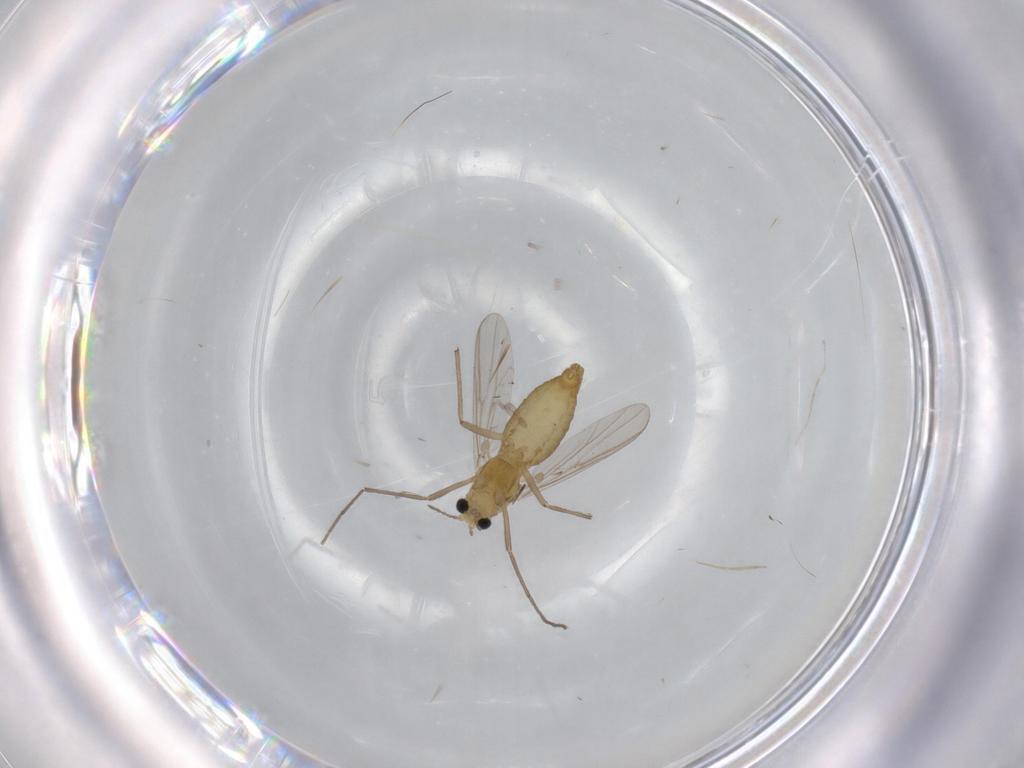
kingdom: Animalia
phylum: Arthropoda
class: Insecta
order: Diptera
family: Chironomidae
